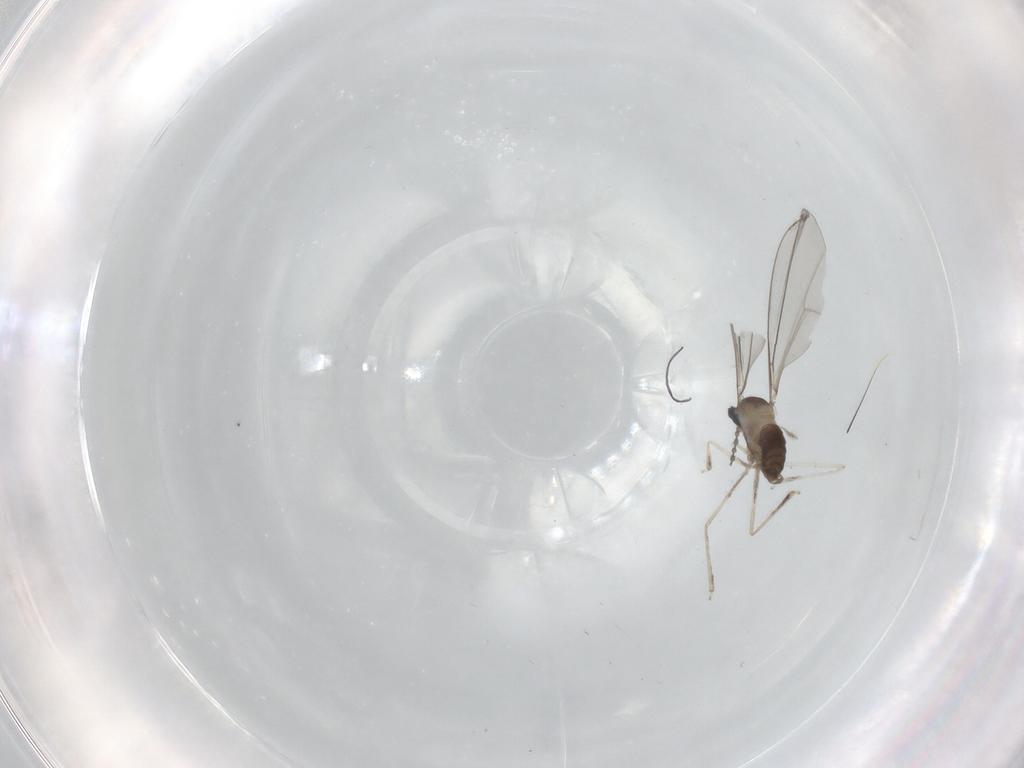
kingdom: Animalia
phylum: Arthropoda
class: Insecta
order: Diptera
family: Cecidomyiidae
